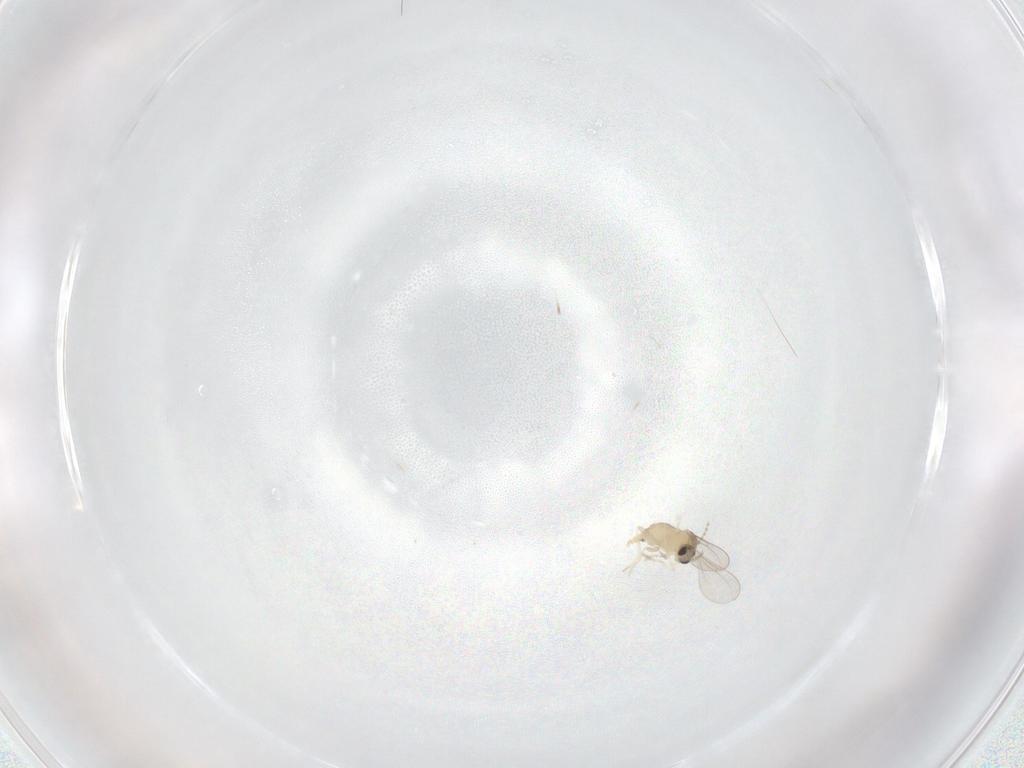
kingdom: Animalia
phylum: Arthropoda
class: Insecta
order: Diptera
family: Cecidomyiidae
